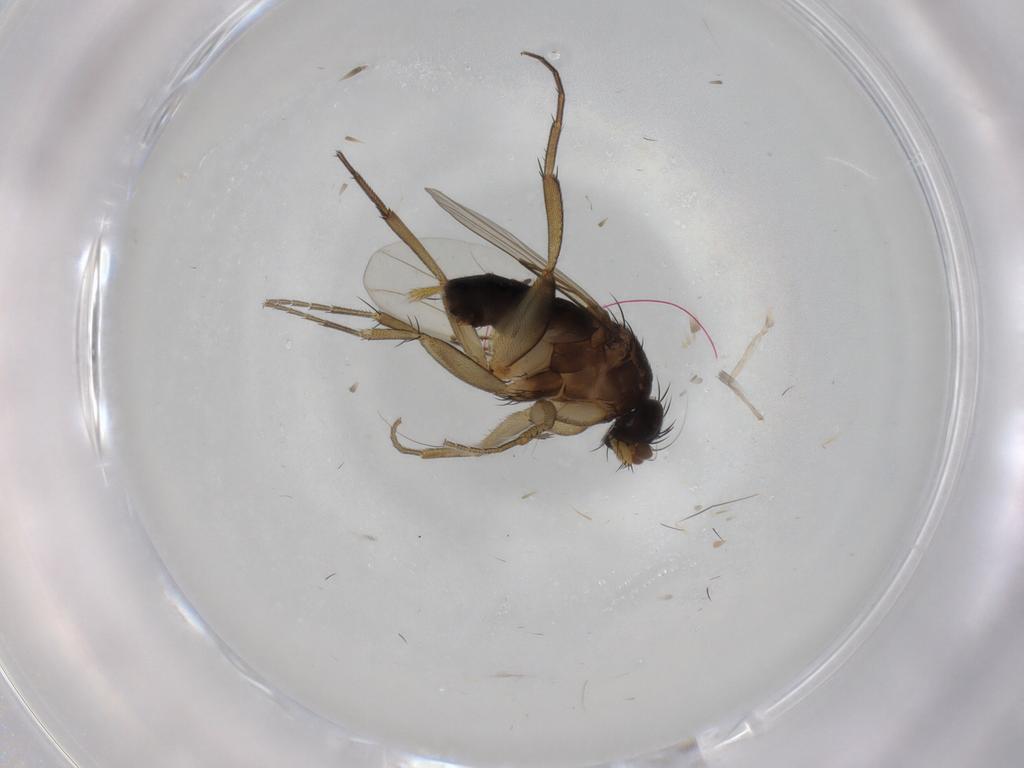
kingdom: Animalia
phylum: Arthropoda
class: Insecta
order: Diptera
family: Phoridae
